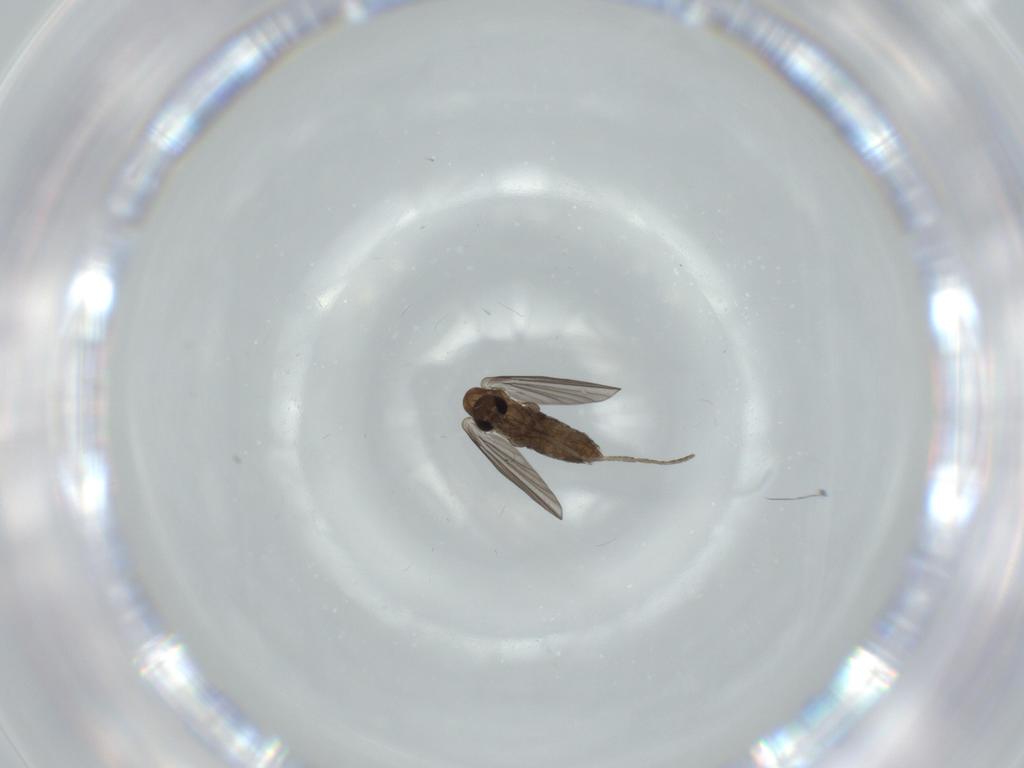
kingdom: Animalia
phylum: Arthropoda
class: Insecta
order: Diptera
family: Psychodidae
